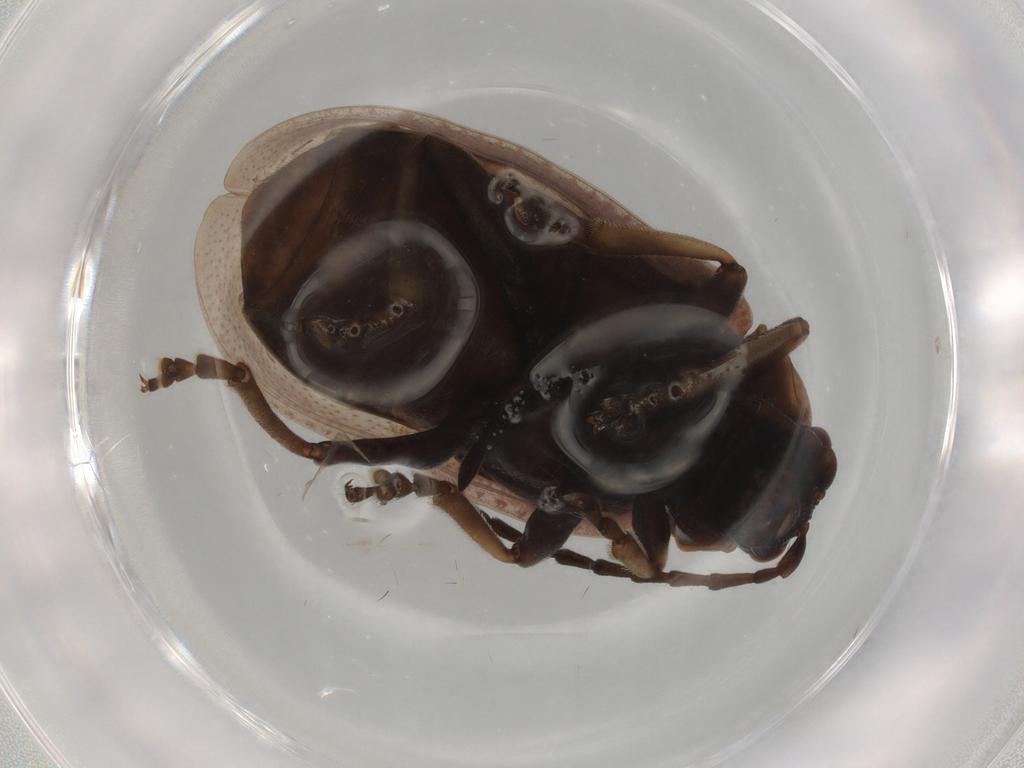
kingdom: Animalia
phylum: Arthropoda
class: Insecta
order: Coleoptera
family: Chrysomelidae
